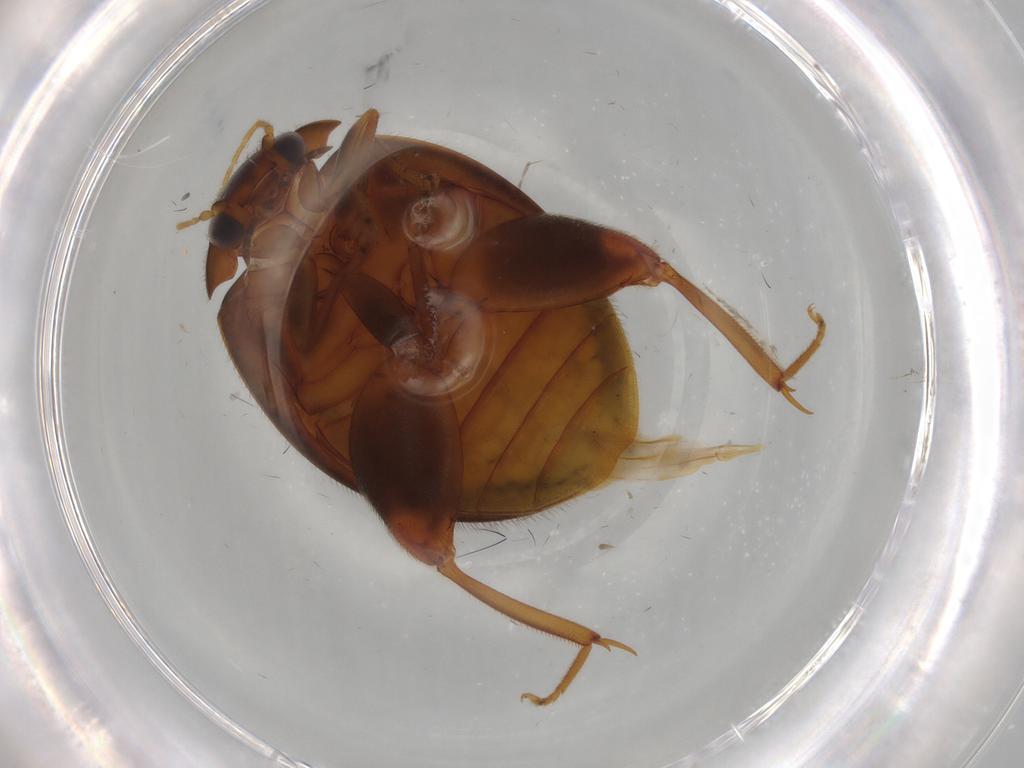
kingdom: Animalia
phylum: Arthropoda
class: Insecta
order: Coleoptera
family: Scirtidae
